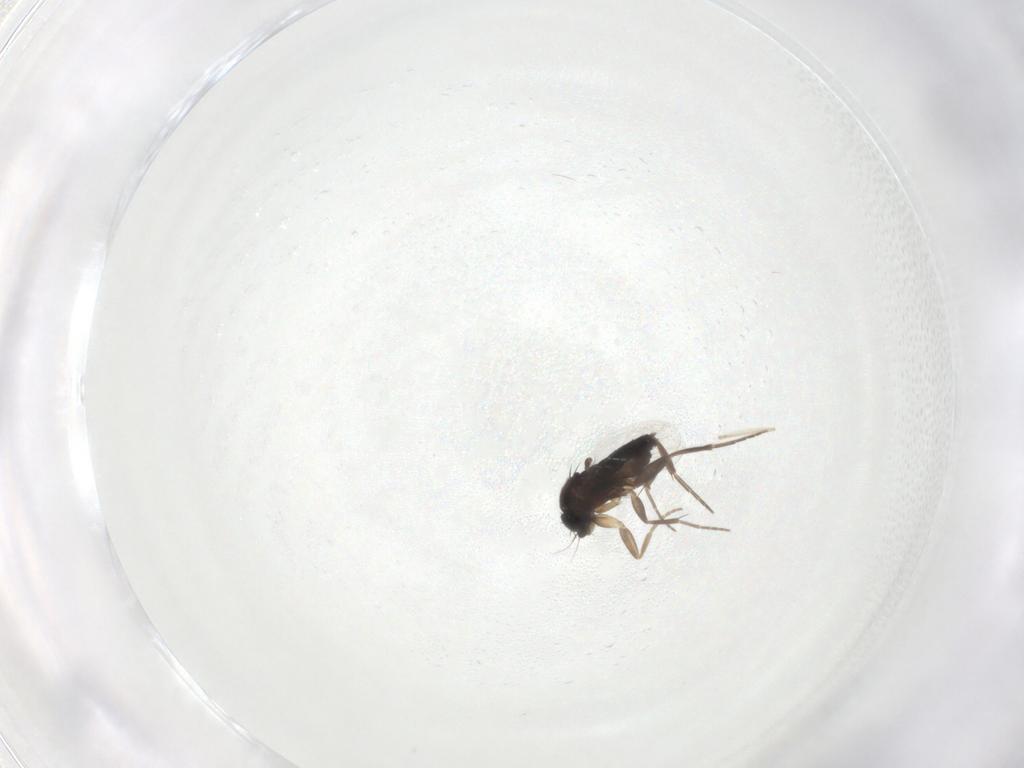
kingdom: Animalia
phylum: Arthropoda
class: Insecta
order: Diptera
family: Phoridae
